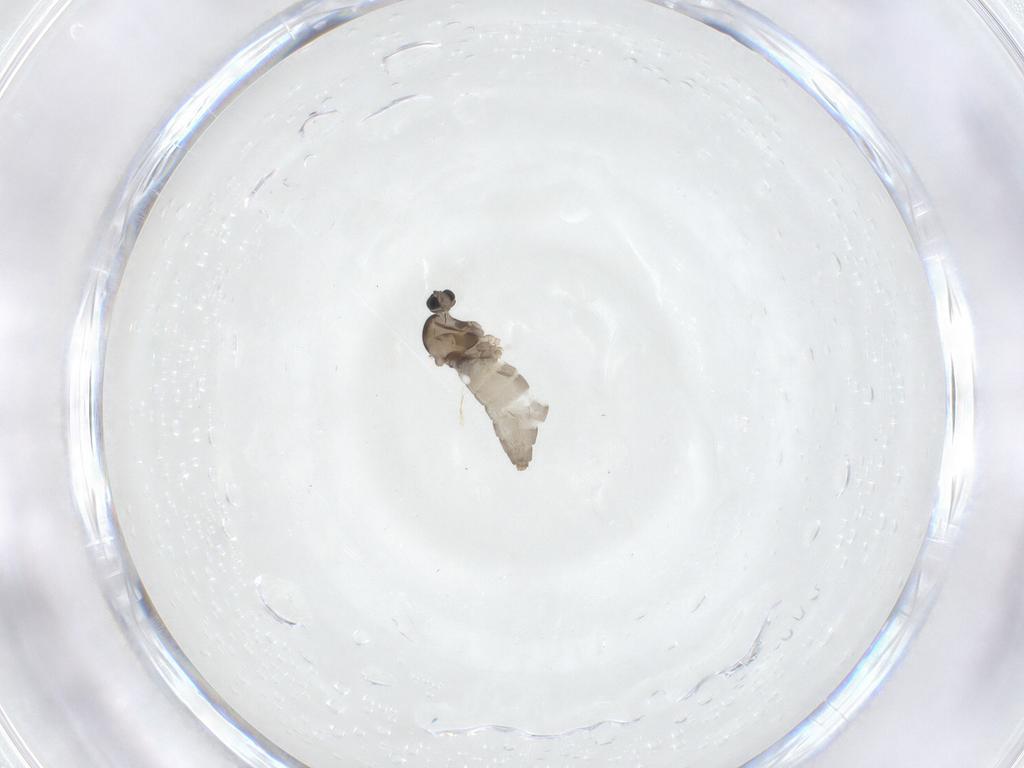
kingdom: Animalia
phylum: Arthropoda
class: Insecta
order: Diptera
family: Cecidomyiidae
